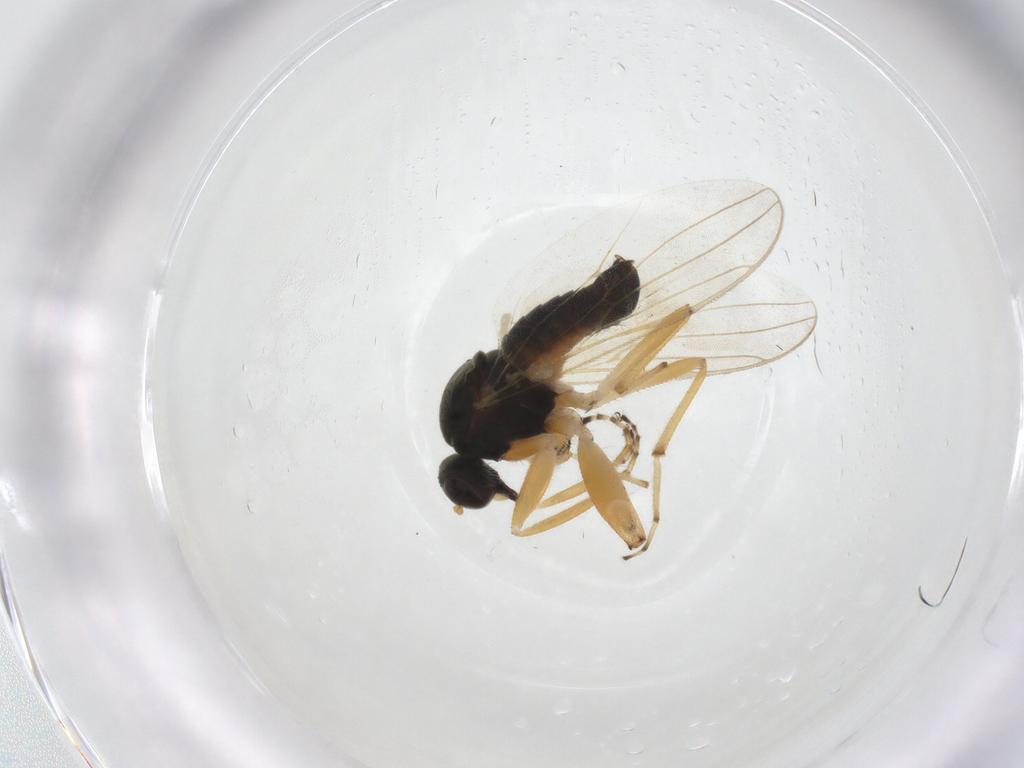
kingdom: Animalia
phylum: Arthropoda
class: Insecta
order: Diptera
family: Hybotidae
